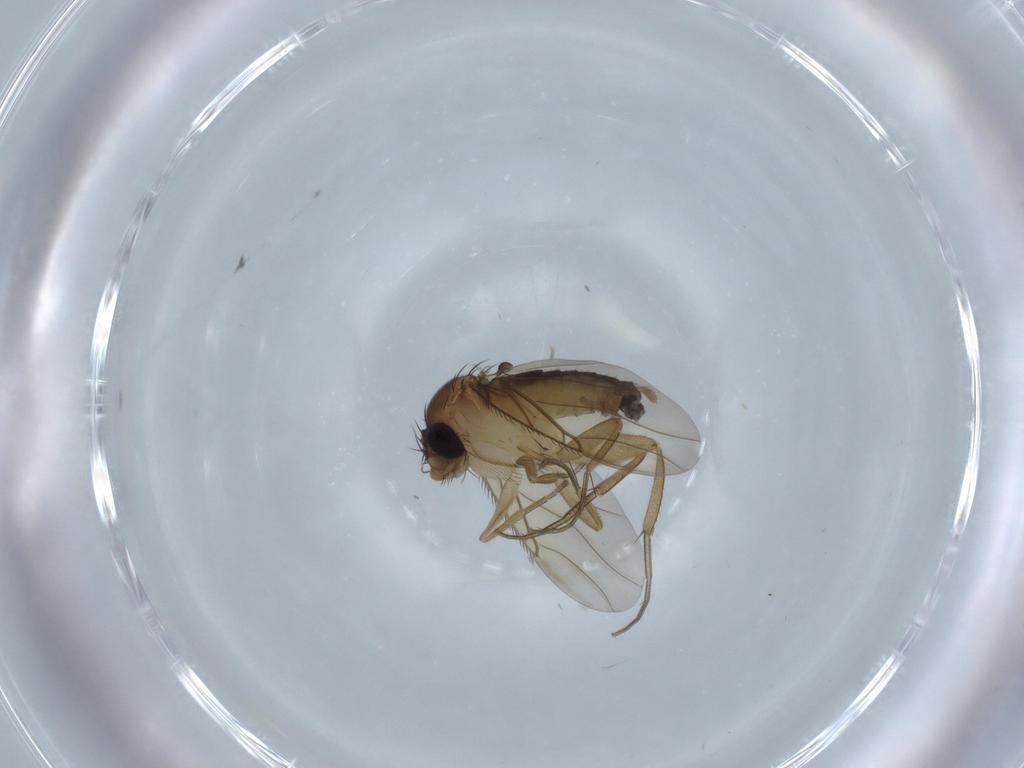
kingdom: Animalia
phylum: Arthropoda
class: Insecta
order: Diptera
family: Phoridae
